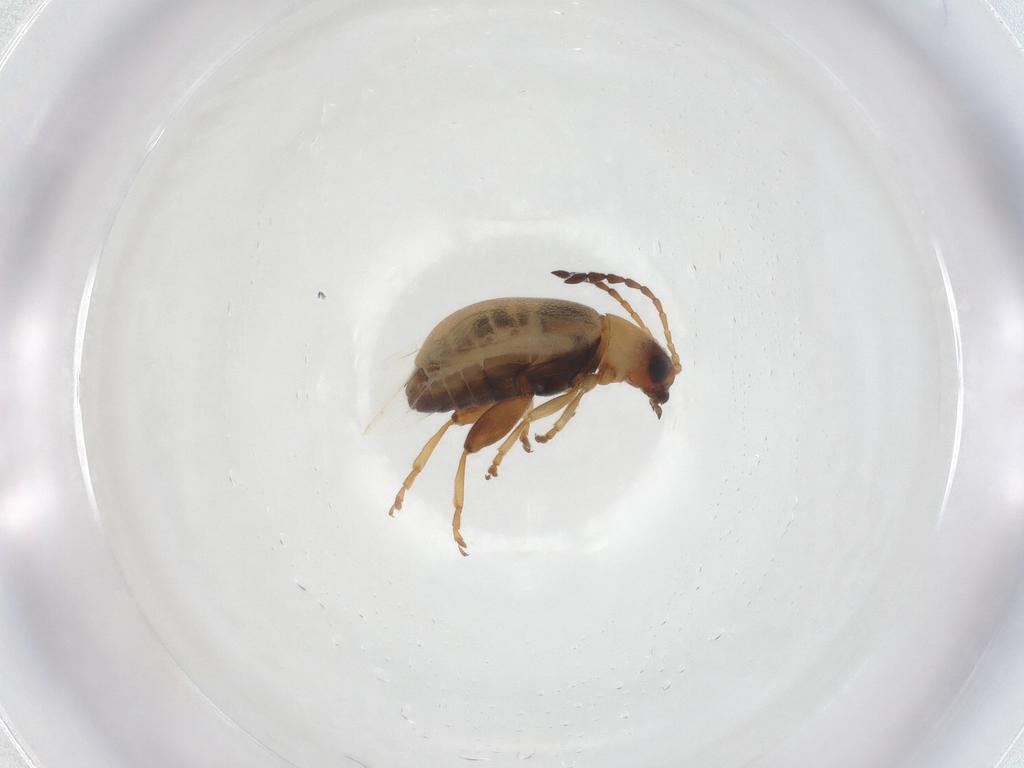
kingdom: Animalia
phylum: Arthropoda
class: Insecta
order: Coleoptera
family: Chrysomelidae
